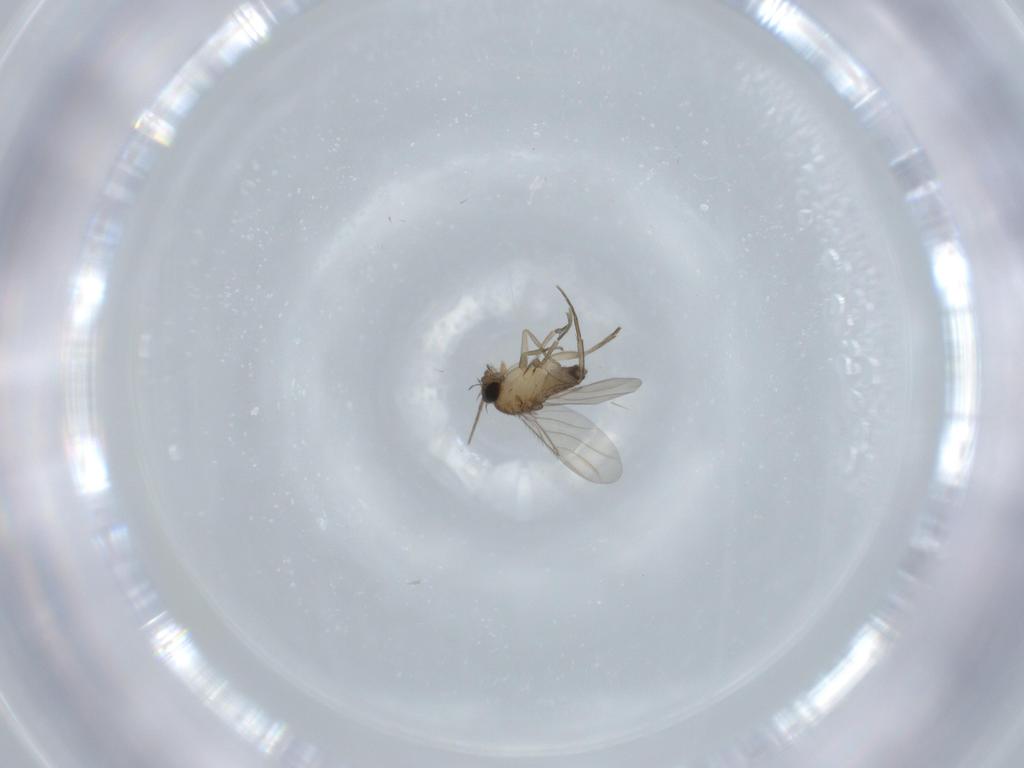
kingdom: Animalia
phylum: Arthropoda
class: Insecta
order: Diptera
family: Phoridae
